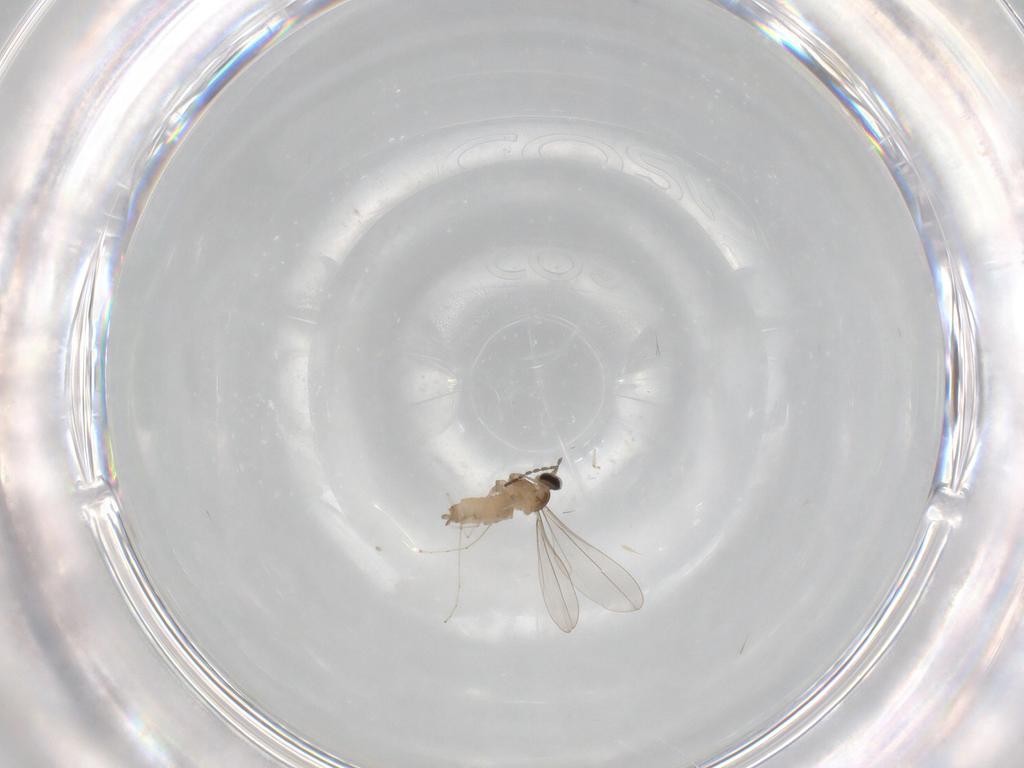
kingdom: Animalia
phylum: Arthropoda
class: Insecta
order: Diptera
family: Cecidomyiidae
